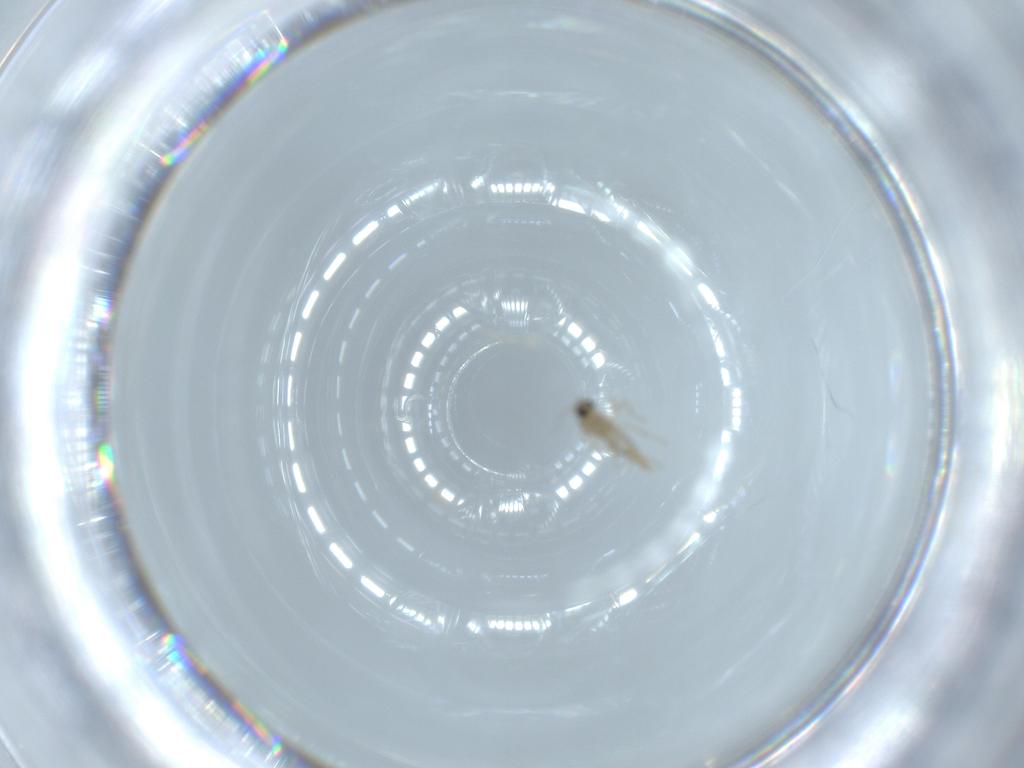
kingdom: Animalia
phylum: Arthropoda
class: Insecta
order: Diptera
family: Cecidomyiidae
